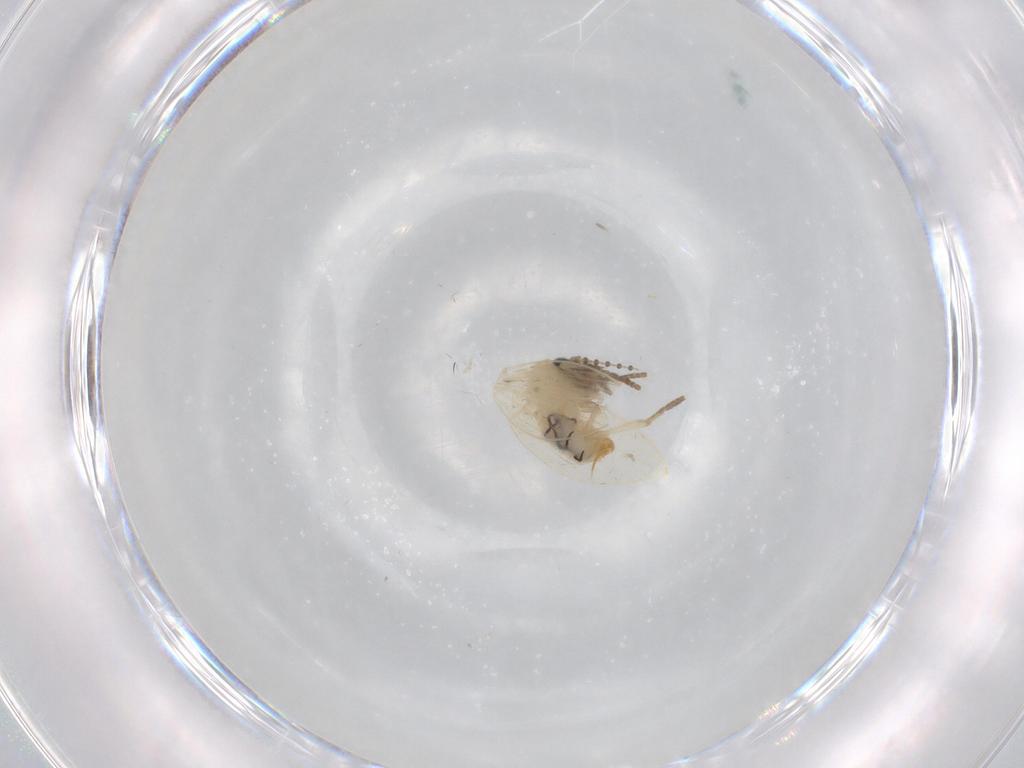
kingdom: Animalia
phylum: Arthropoda
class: Insecta
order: Diptera
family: Psychodidae
